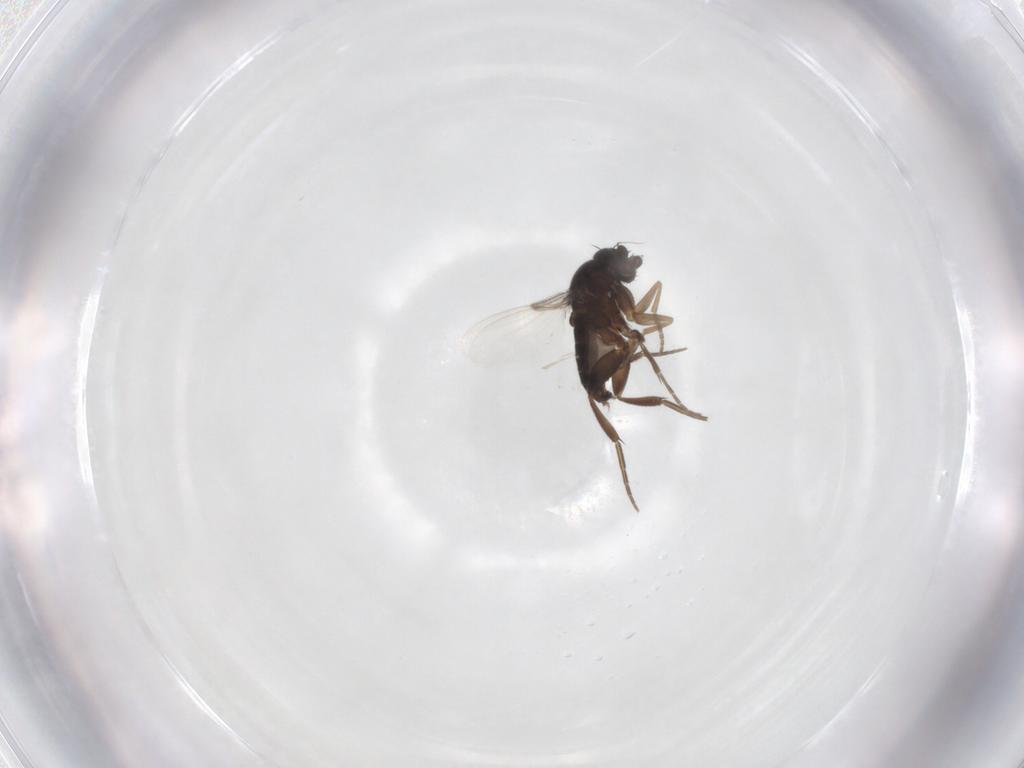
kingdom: Animalia
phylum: Arthropoda
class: Insecta
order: Diptera
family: Phoridae
